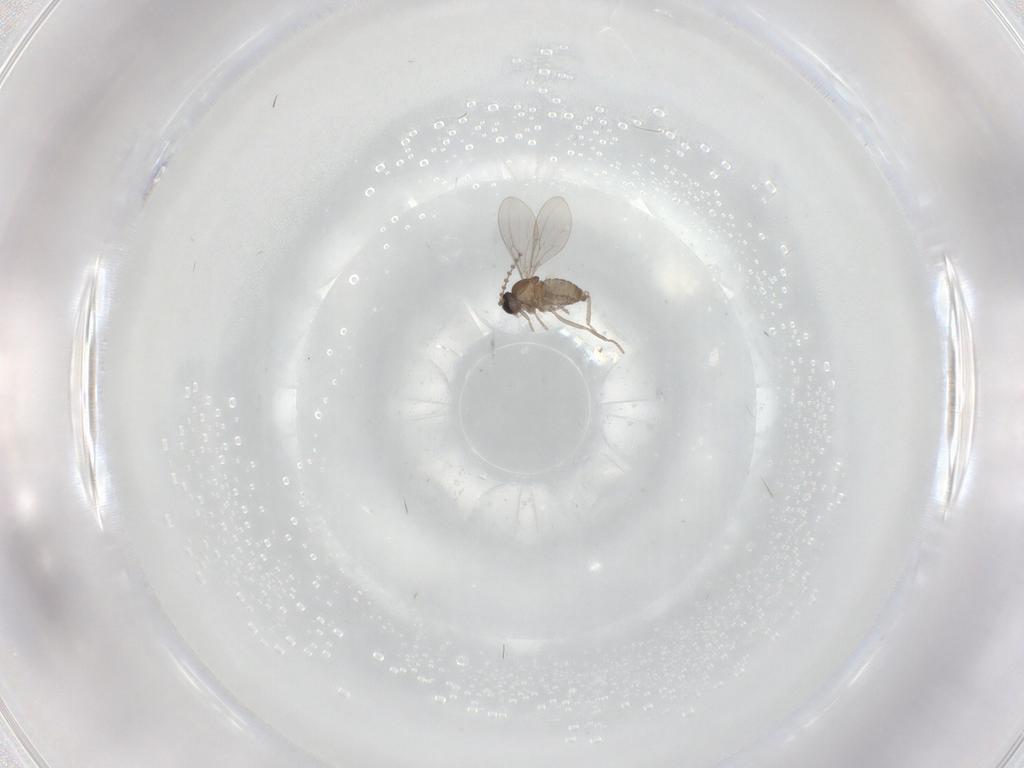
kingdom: Animalia
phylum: Arthropoda
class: Insecta
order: Diptera
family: Cecidomyiidae
